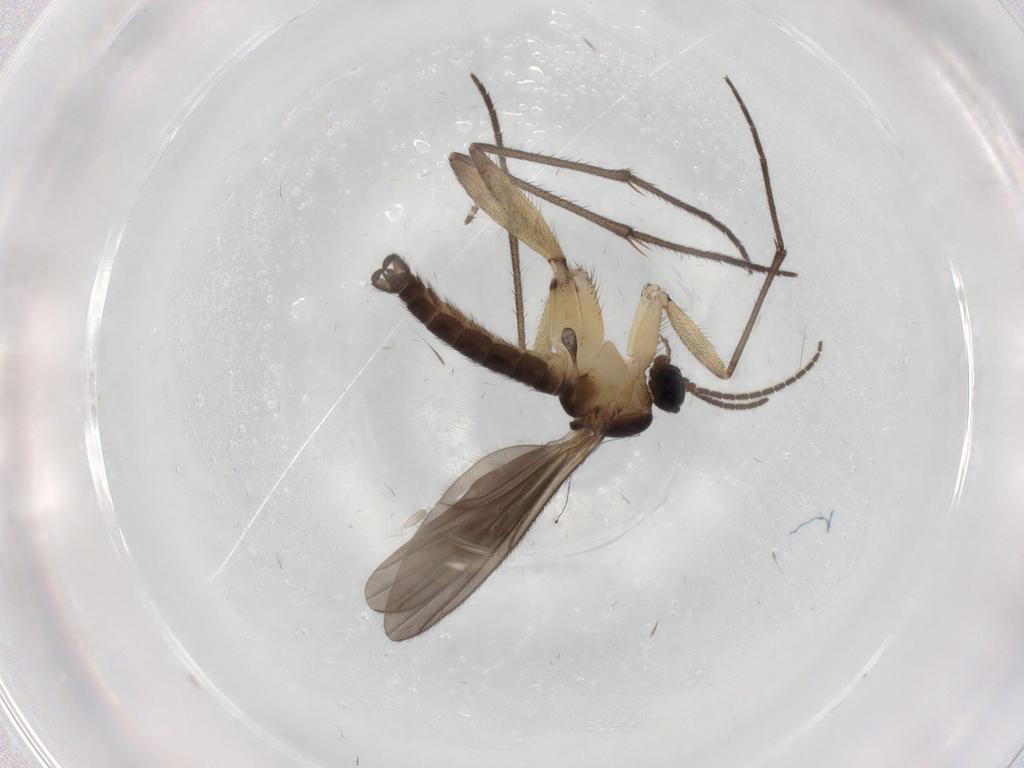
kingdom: Animalia
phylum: Arthropoda
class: Insecta
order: Diptera
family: Sciaridae
